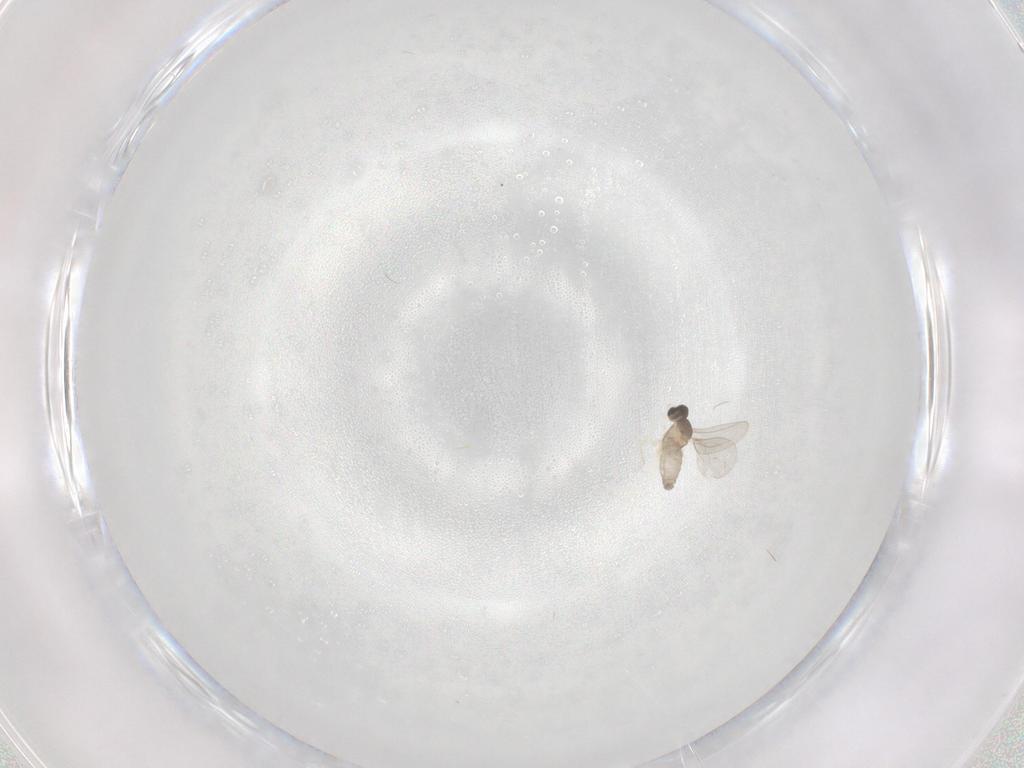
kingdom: Animalia
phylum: Arthropoda
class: Insecta
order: Diptera
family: Cecidomyiidae
